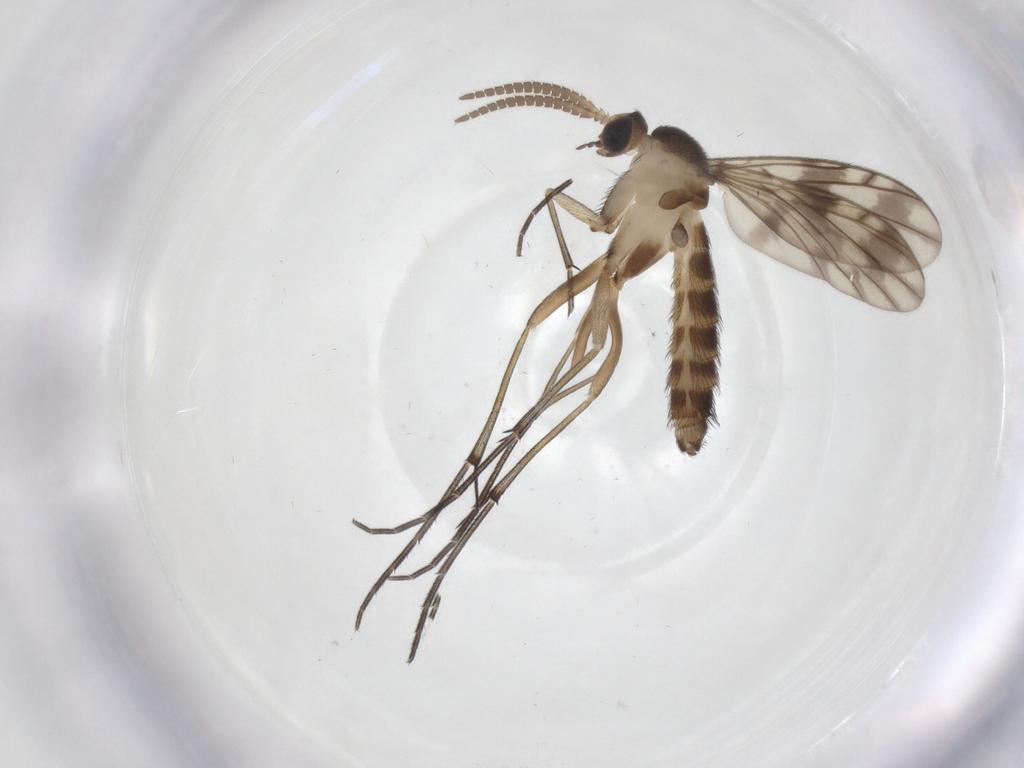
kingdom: Animalia
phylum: Arthropoda
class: Insecta
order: Diptera
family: Keroplatidae
